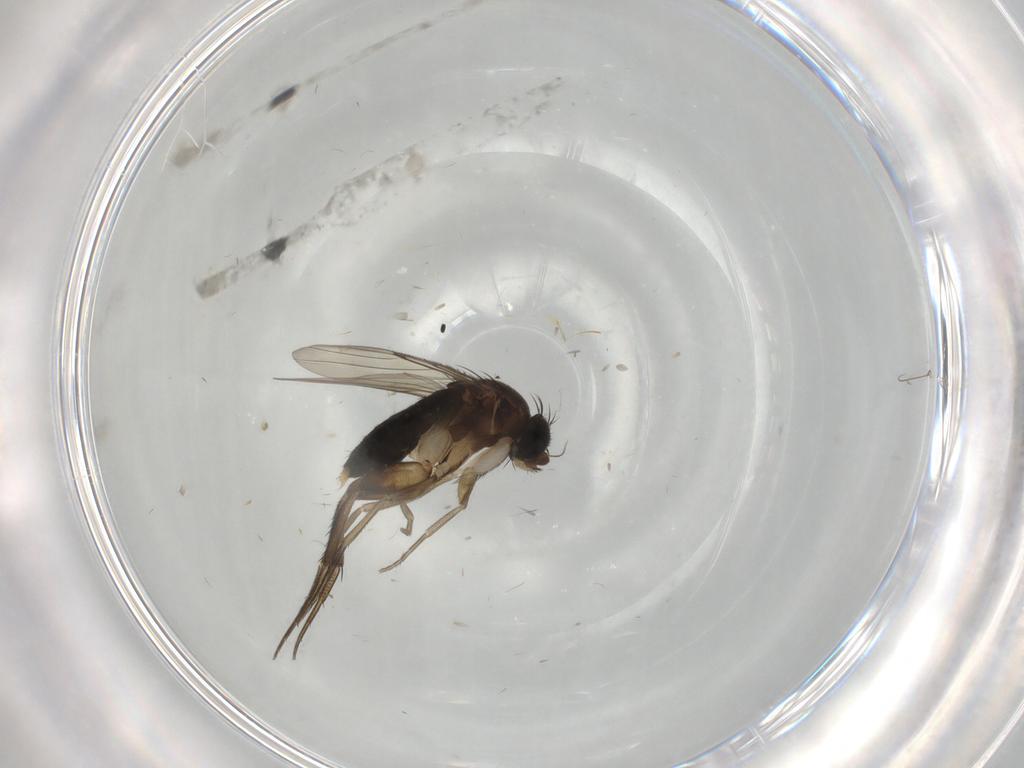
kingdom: Animalia
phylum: Arthropoda
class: Insecta
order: Diptera
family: Phoridae
